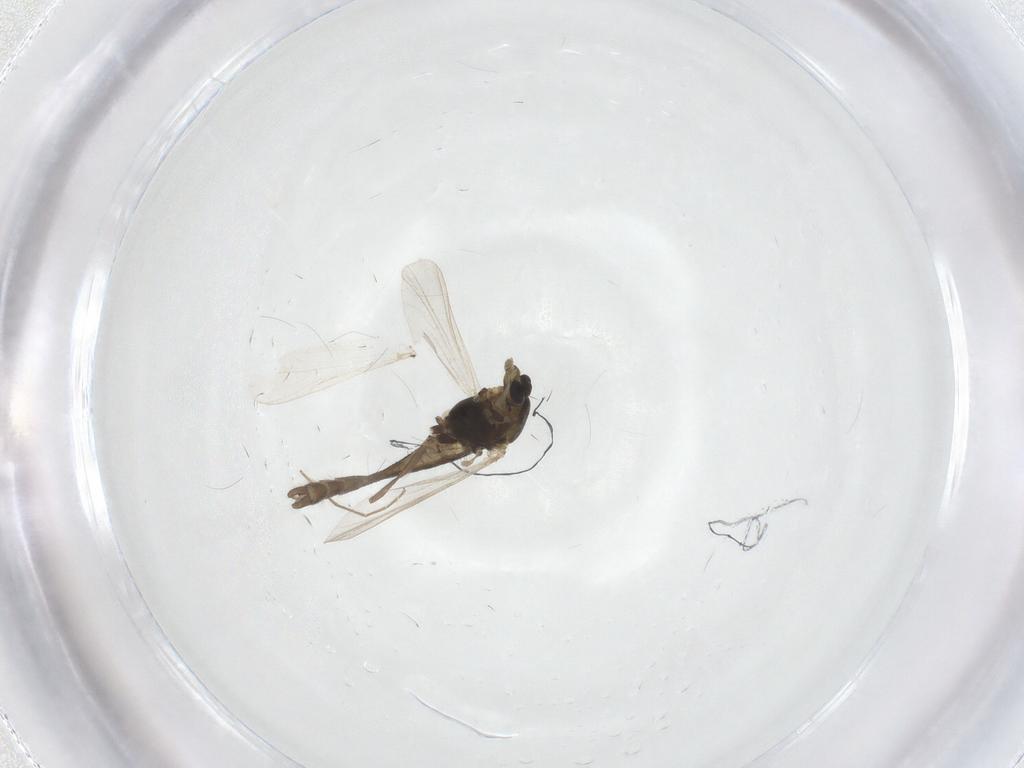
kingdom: Animalia
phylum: Arthropoda
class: Insecta
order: Diptera
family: Chironomidae
